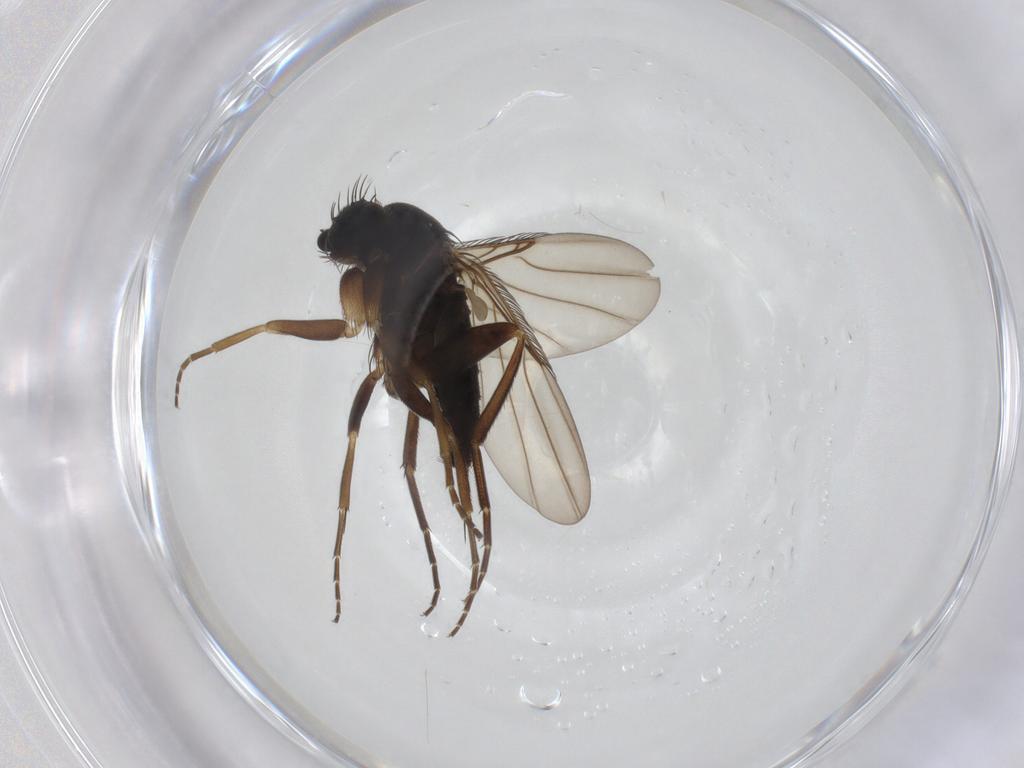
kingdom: Animalia
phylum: Arthropoda
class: Insecta
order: Diptera
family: Phoridae
